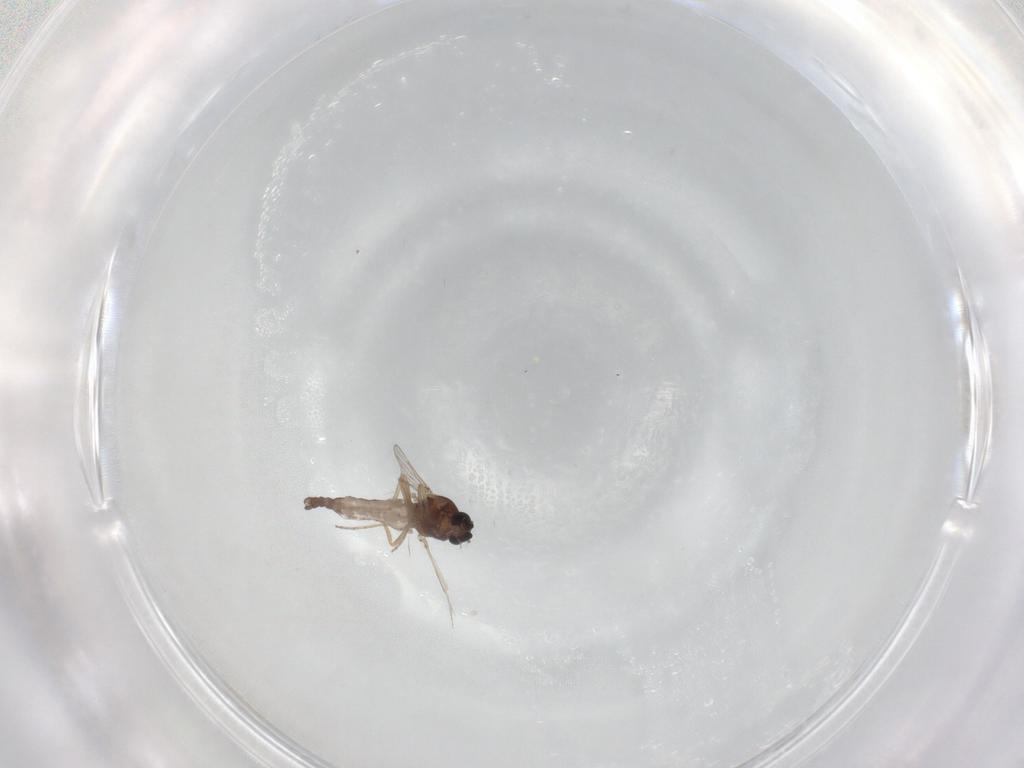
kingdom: Animalia
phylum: Arthropoda
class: Insecta
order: Diptera
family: Ceratopogonidae
